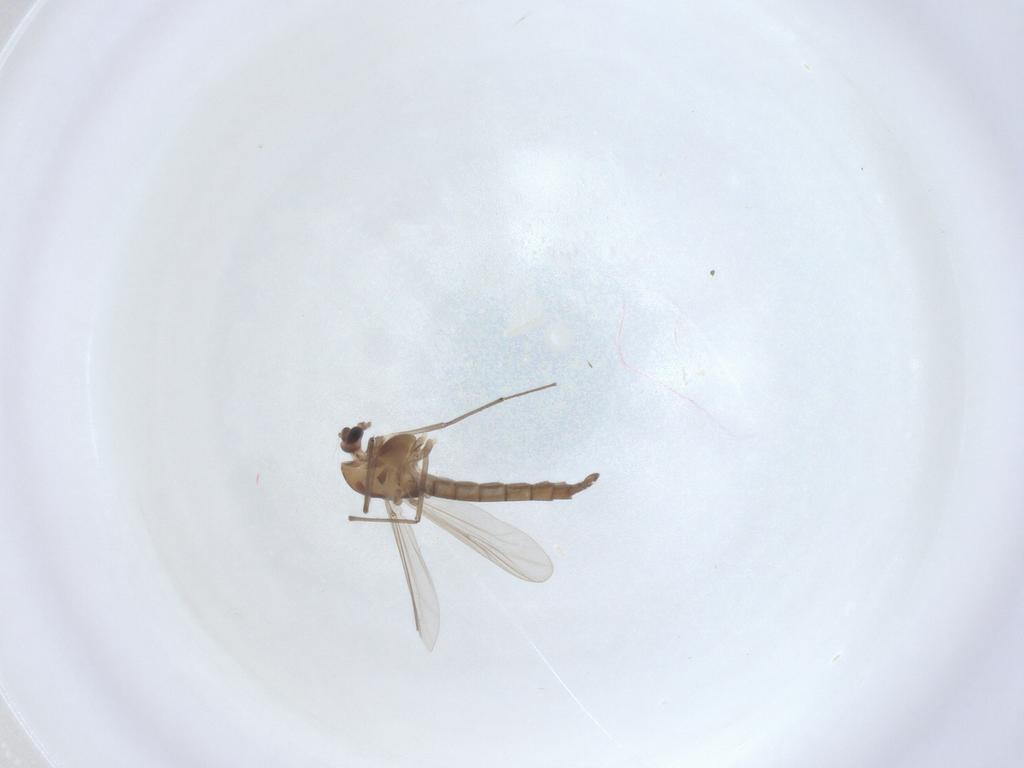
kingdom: Animalia
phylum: Arthropoda
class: Insecta
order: Diptera
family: Chironomidae
